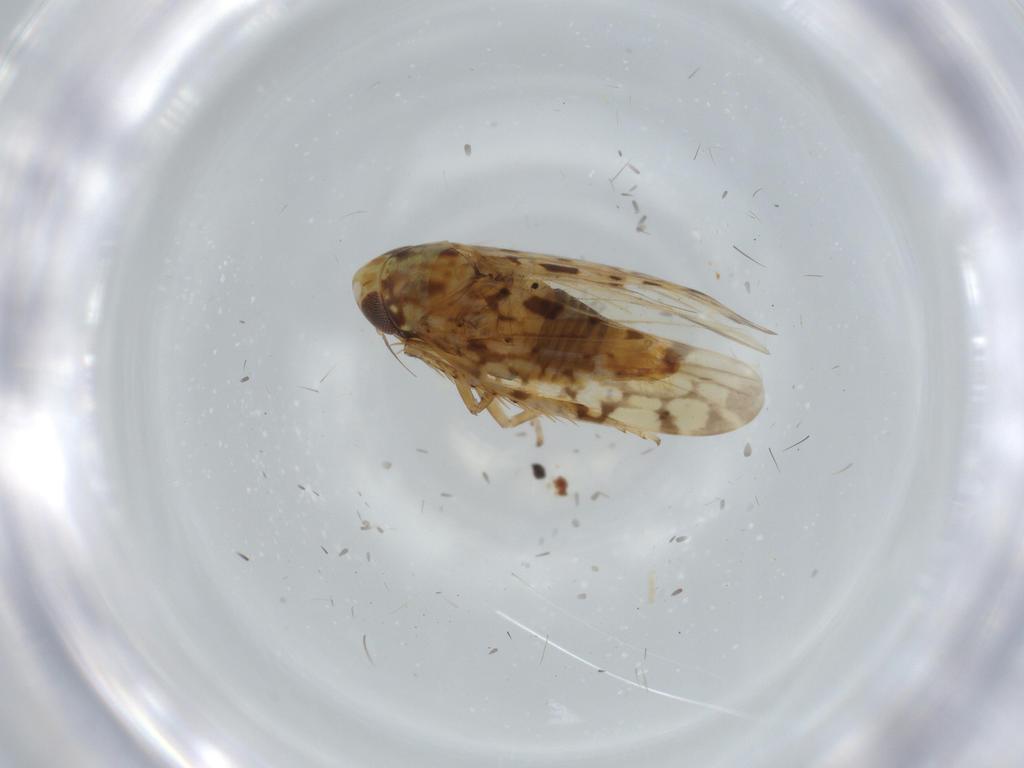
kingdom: Animalia
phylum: Arthropoda
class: Insecta
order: Hemiptera
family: Cicadellidae
